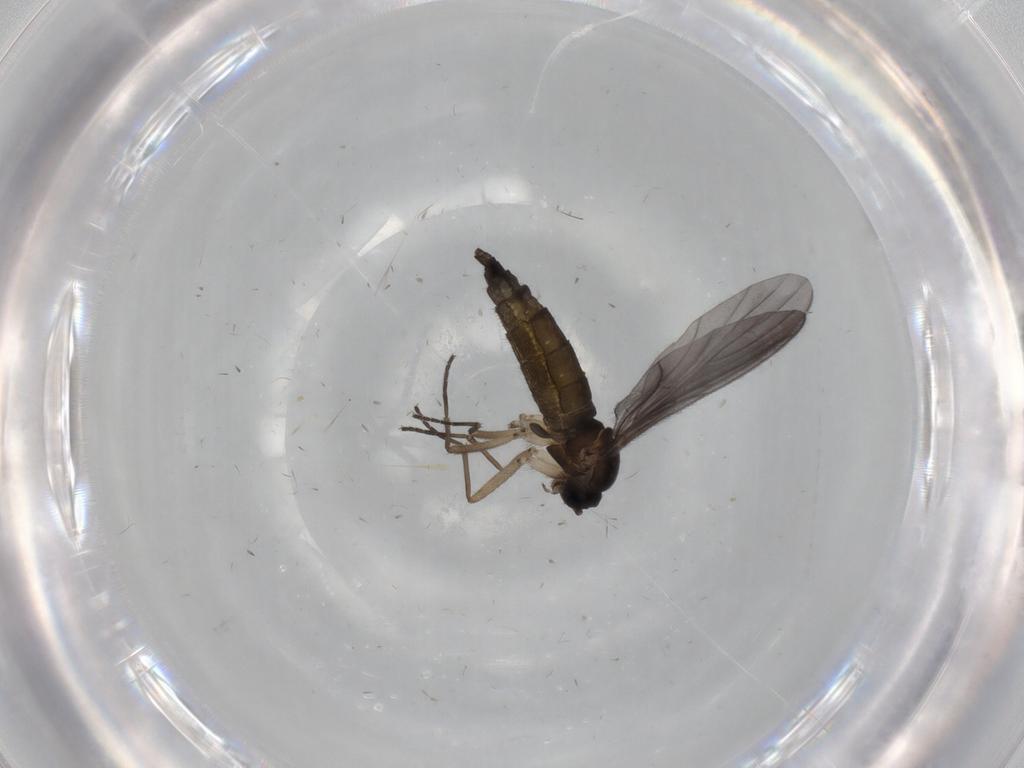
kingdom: Animalia
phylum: Arthropoda
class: Insecta
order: Diptera
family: Sciaridae
